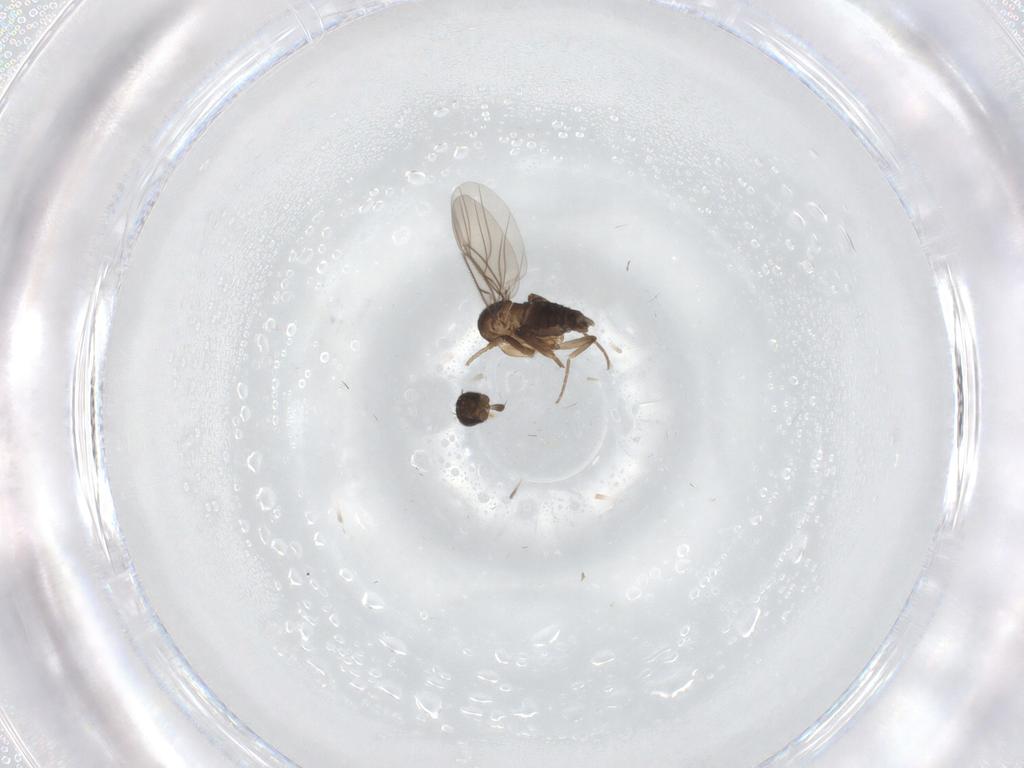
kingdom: Animalia
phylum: Arthropoda
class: Insecta
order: Diptera
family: Phoridae
